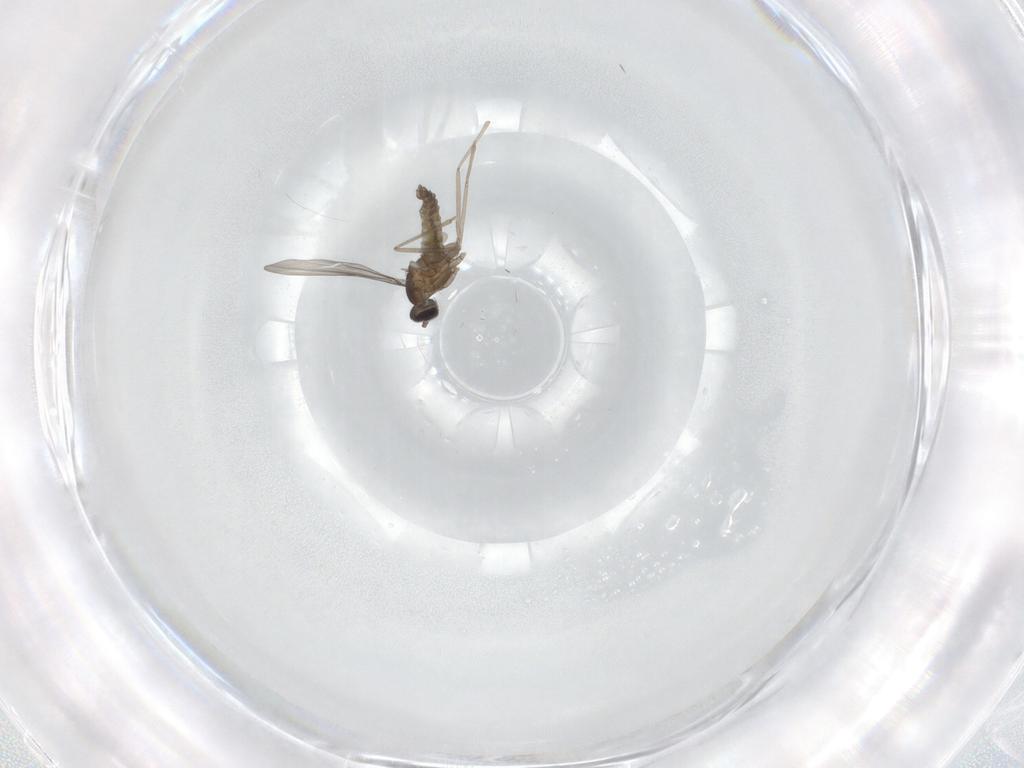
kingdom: Animalia
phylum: Arthropoda
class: Insecta
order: Diptera
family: Cecidomyiidae
